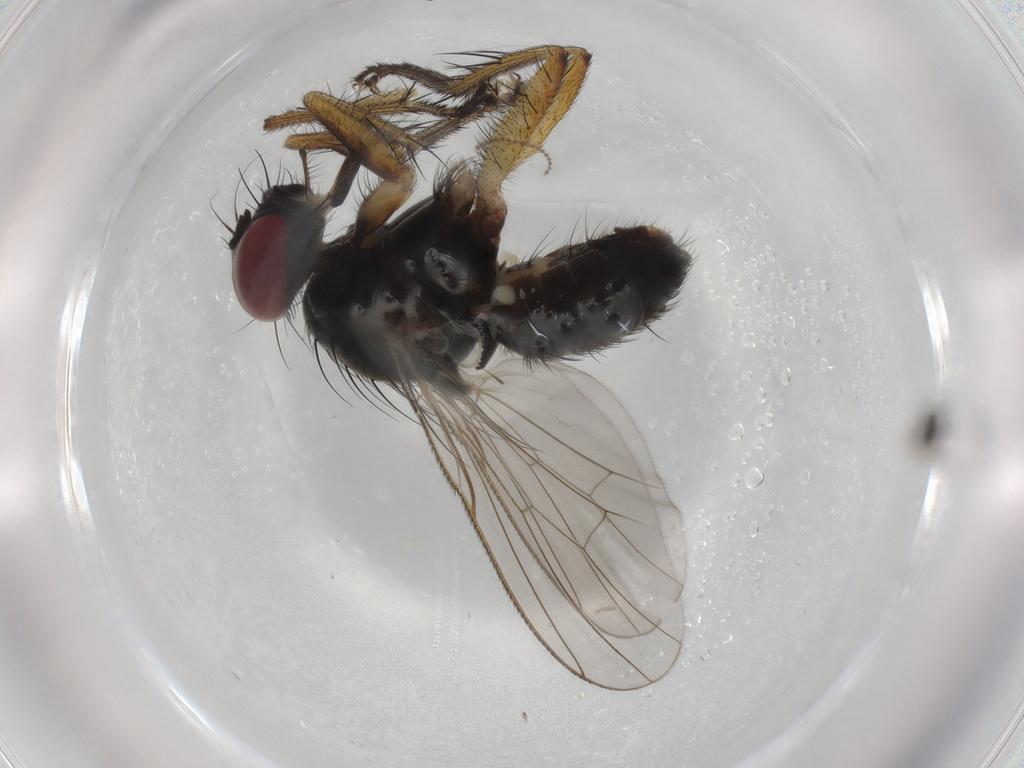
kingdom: Animalia
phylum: Arthropoda
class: Insecta
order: Diptera
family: Muscidae
